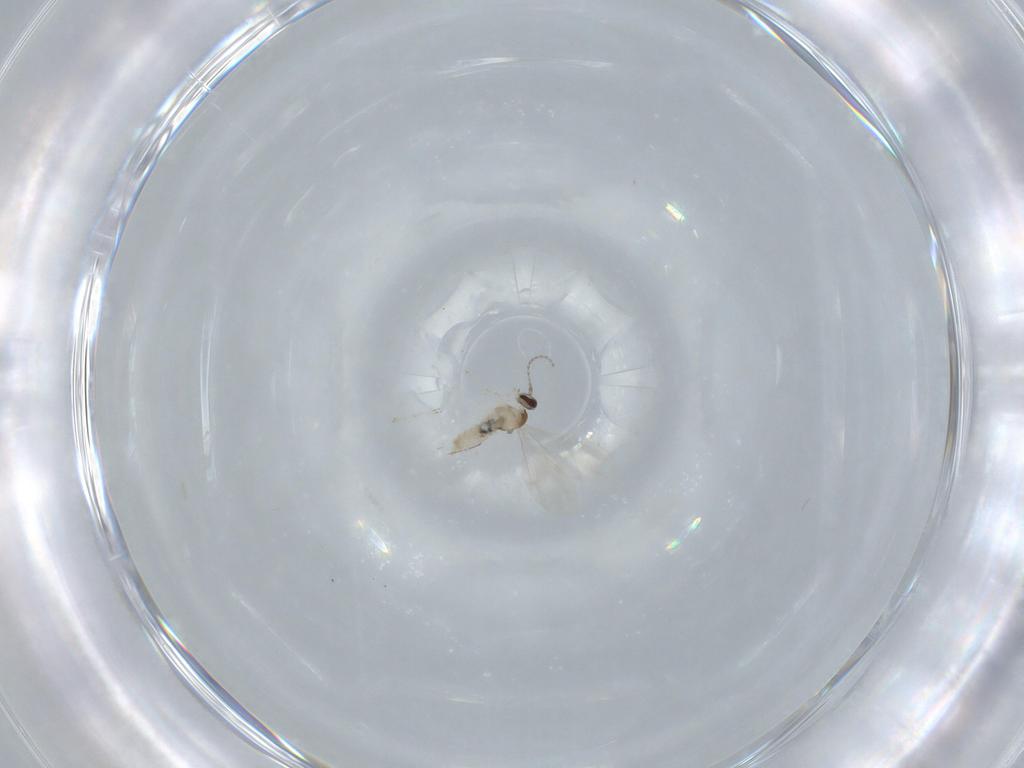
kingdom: Animalia
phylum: Arthropoda
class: Insecta
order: Diptera
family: Cecidomyiidae
